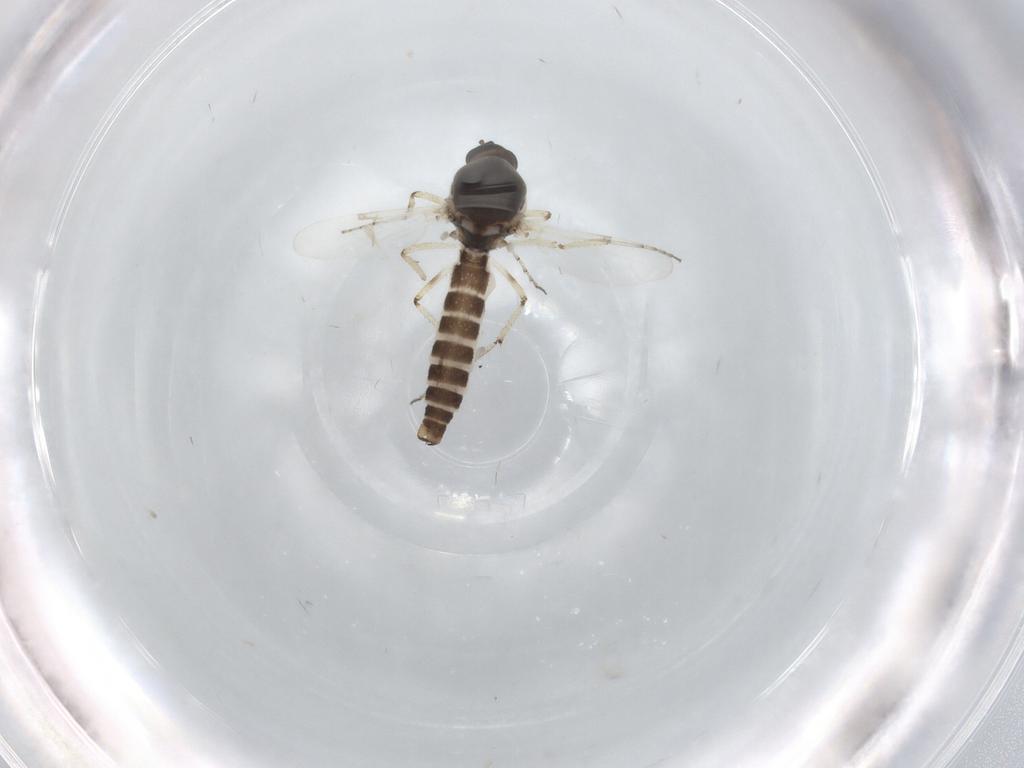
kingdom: Animalia
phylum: Arthropoda
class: Insecta
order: Diptera
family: Ceratopogonidae
